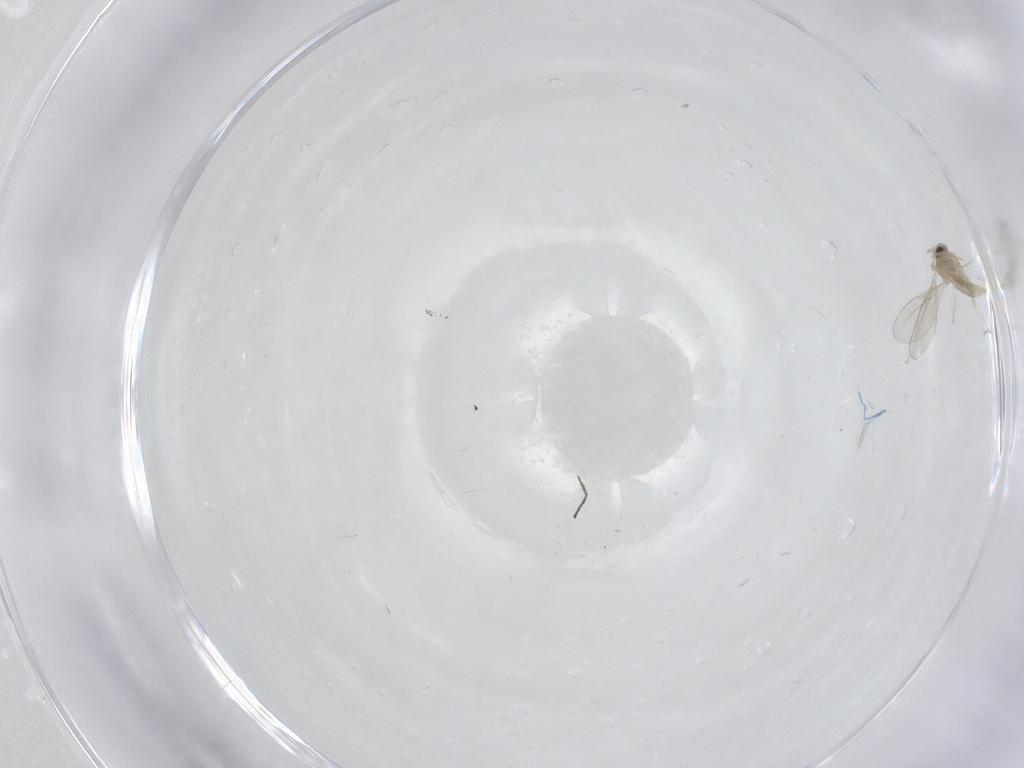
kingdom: Animalia
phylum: Arthropoda
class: Insecta
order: Diptera
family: Cecidomyiidae
